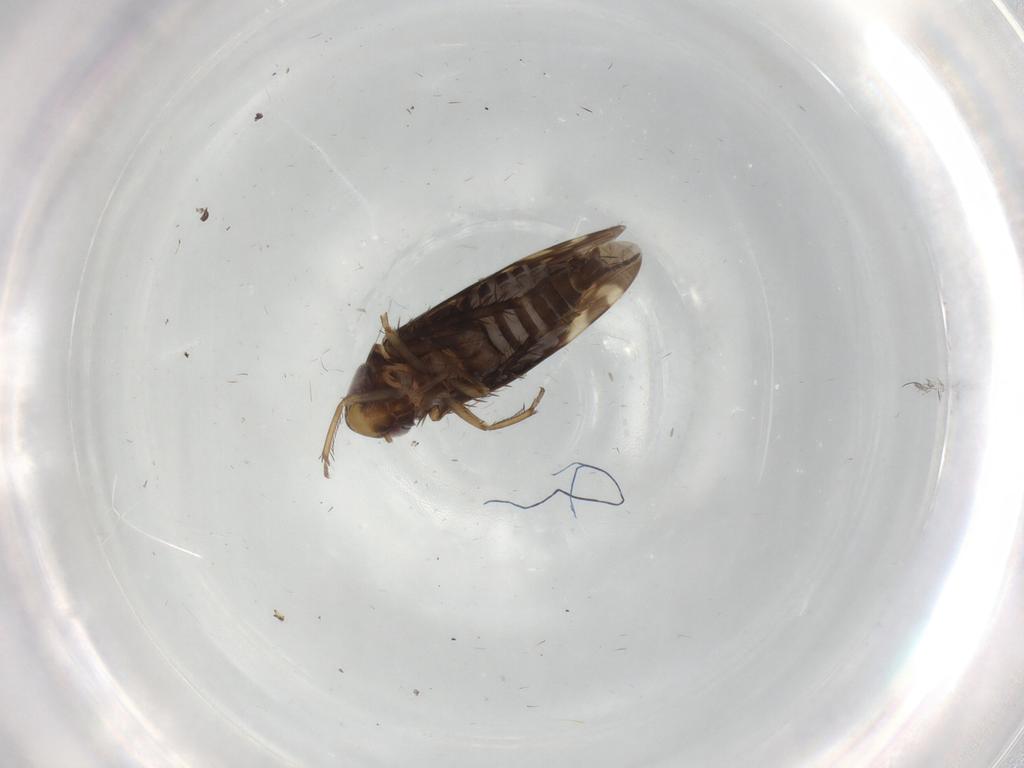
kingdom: Animalia
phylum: Arthropoda
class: Insecta
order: Hemiptera
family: Cicadellidae
